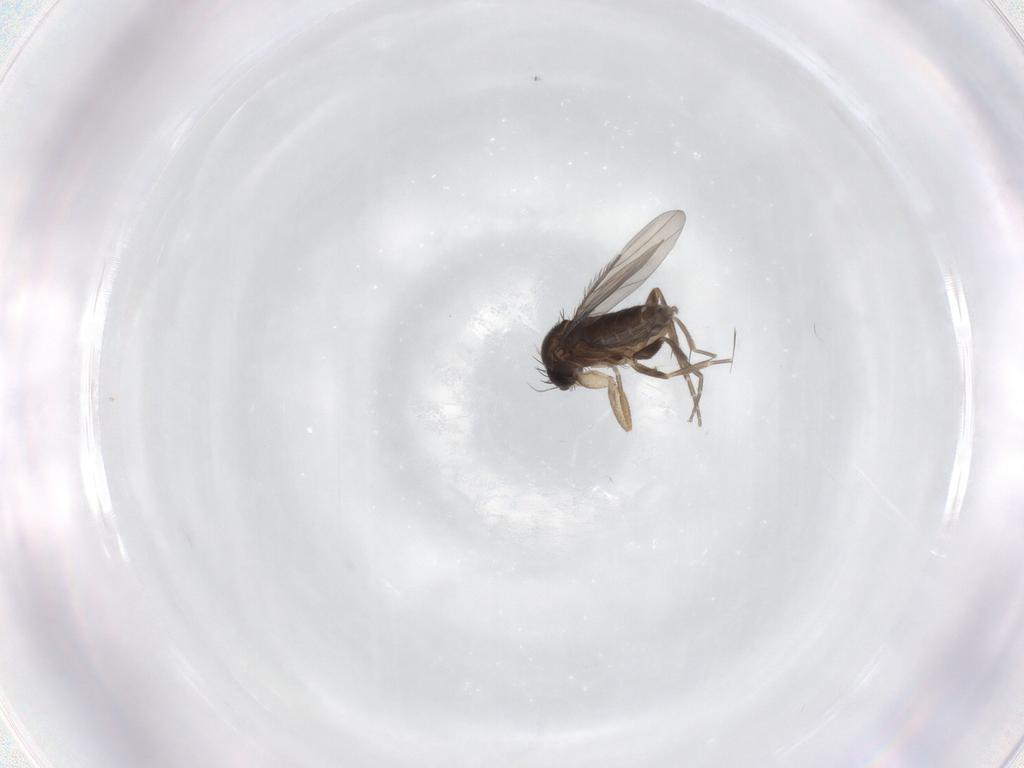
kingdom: Animalia
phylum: Arthropoda
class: Insecta
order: Diptera
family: Phoridae
